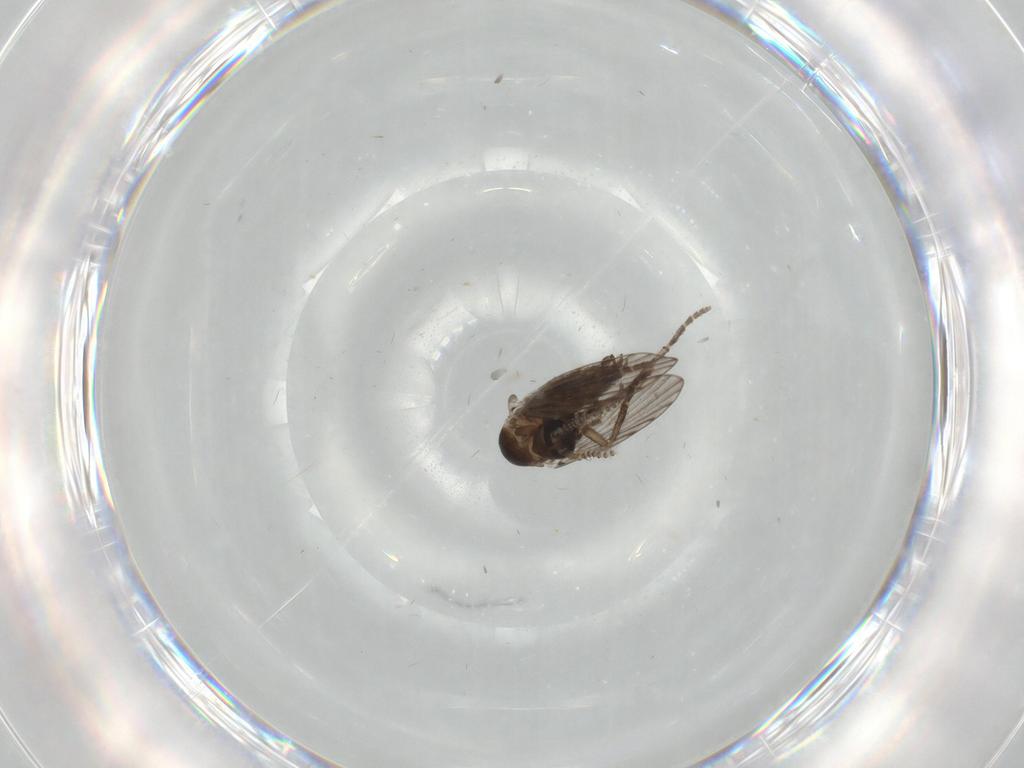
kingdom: Animalia
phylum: Arthropoda
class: Insecta
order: Diptera
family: Psychodidae
